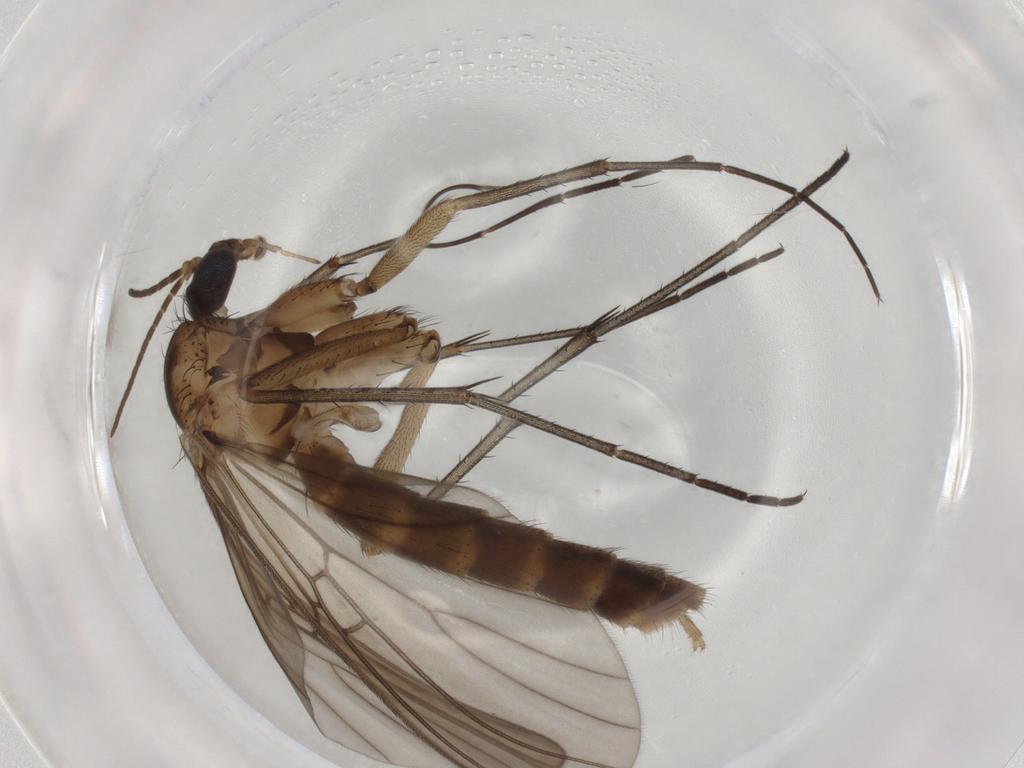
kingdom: Animalia
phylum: Arthropoda
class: Insecta
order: Diptera
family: Mycetophilidae
